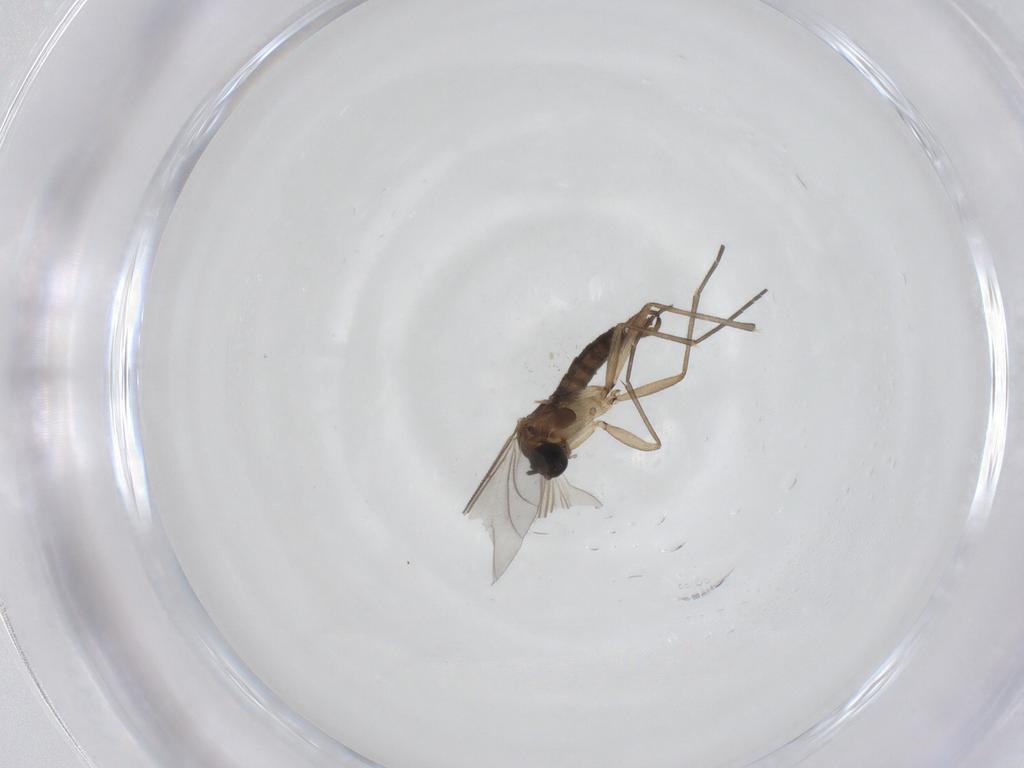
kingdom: Animalia
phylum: Arthropoda
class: Insecta
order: Diptera
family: Sciaridae
